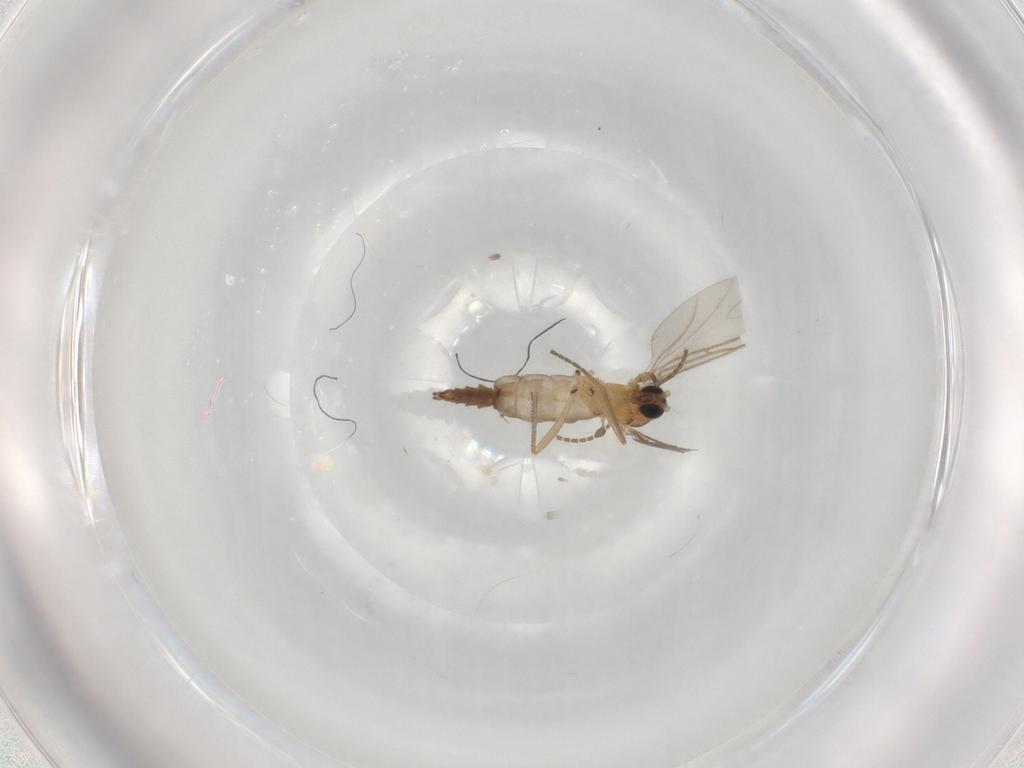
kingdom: Animalia
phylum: Arthropoda
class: Insecta
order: Diptera
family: Sciaridae
